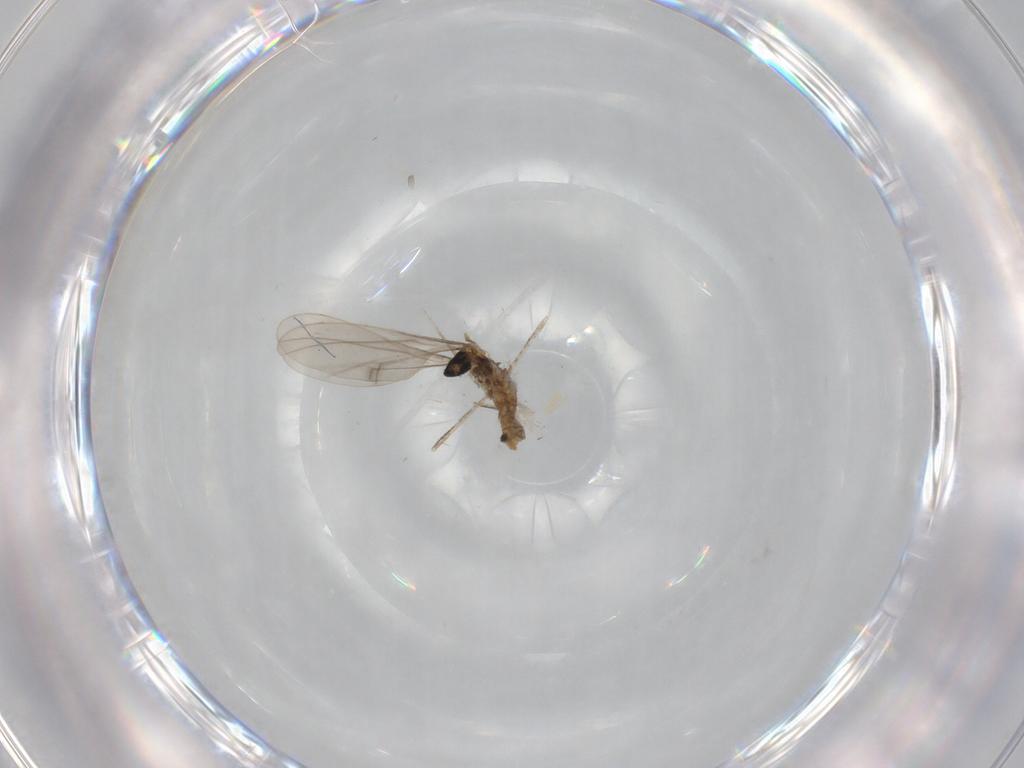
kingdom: Animalia
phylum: Arthropoda
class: Insecta
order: Diptera
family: Cecidomyiidae
